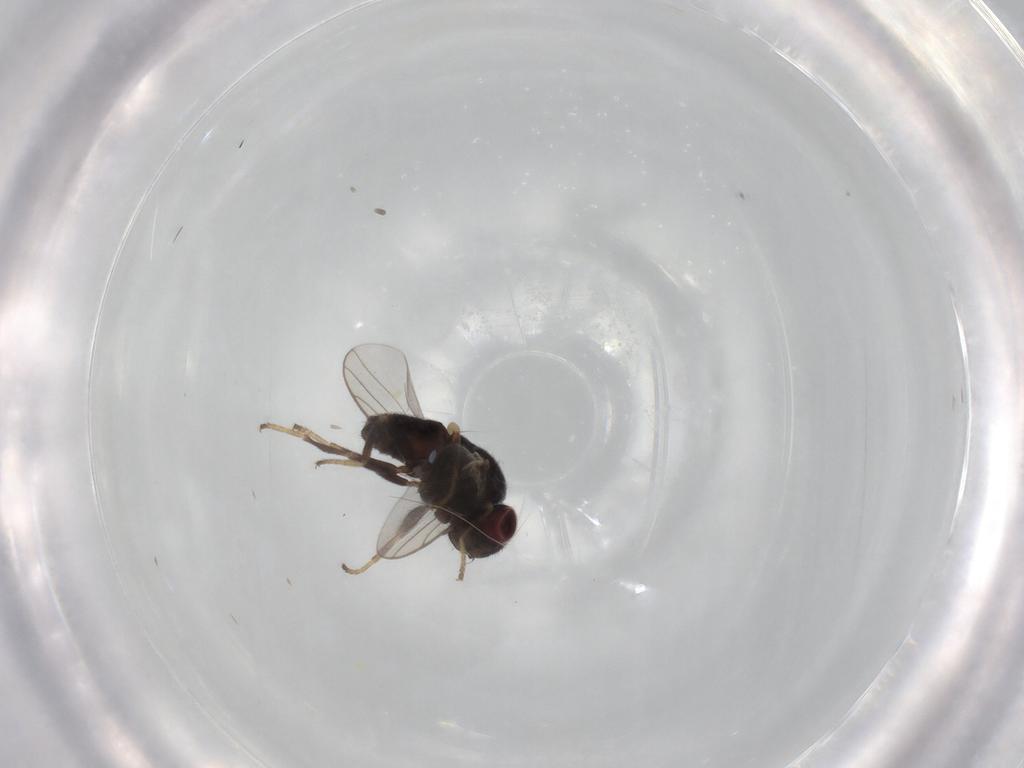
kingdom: Animalia
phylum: Arthropoda
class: Insecta
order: Diptera
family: Chloropidae
